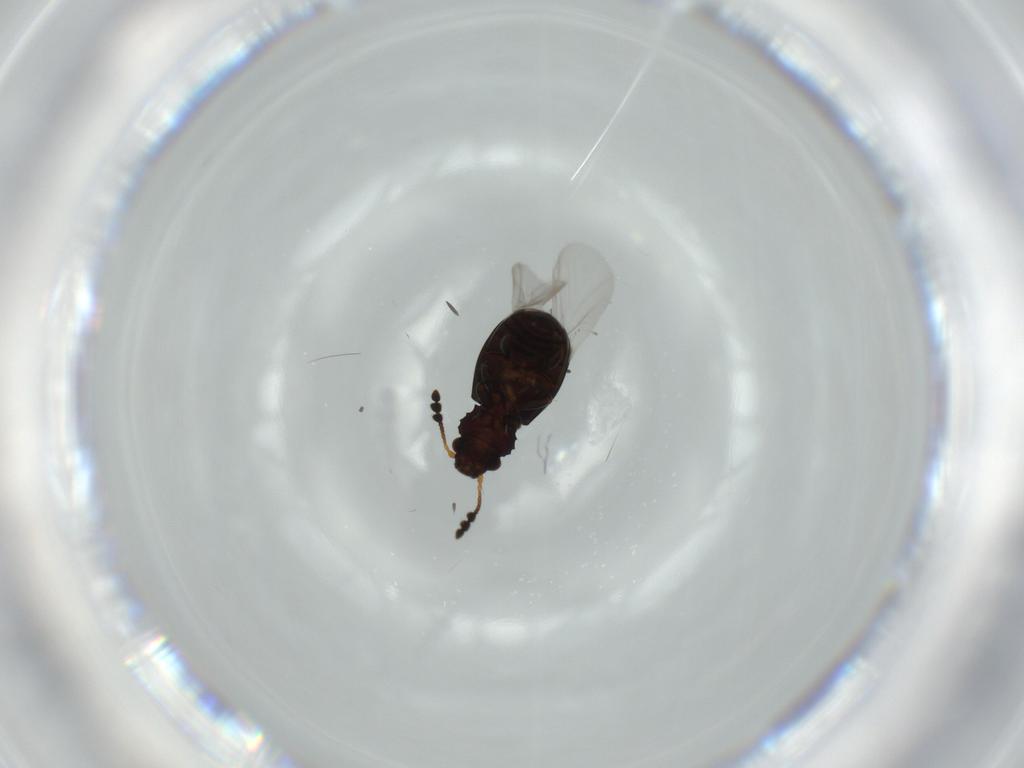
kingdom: Animalia
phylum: Arthropoda
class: Insecta
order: Coleoptera
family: Salpingidae
